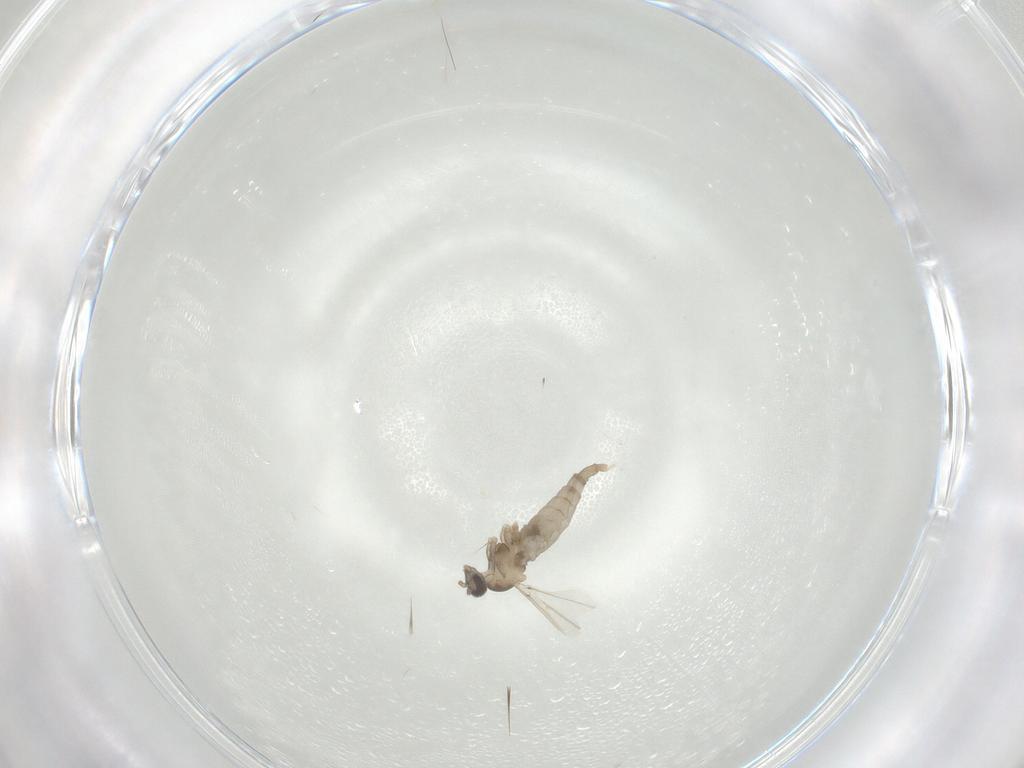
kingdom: Animalia
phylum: Arthropoda
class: Insecta
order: Diptera
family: Cecidomyiidae
